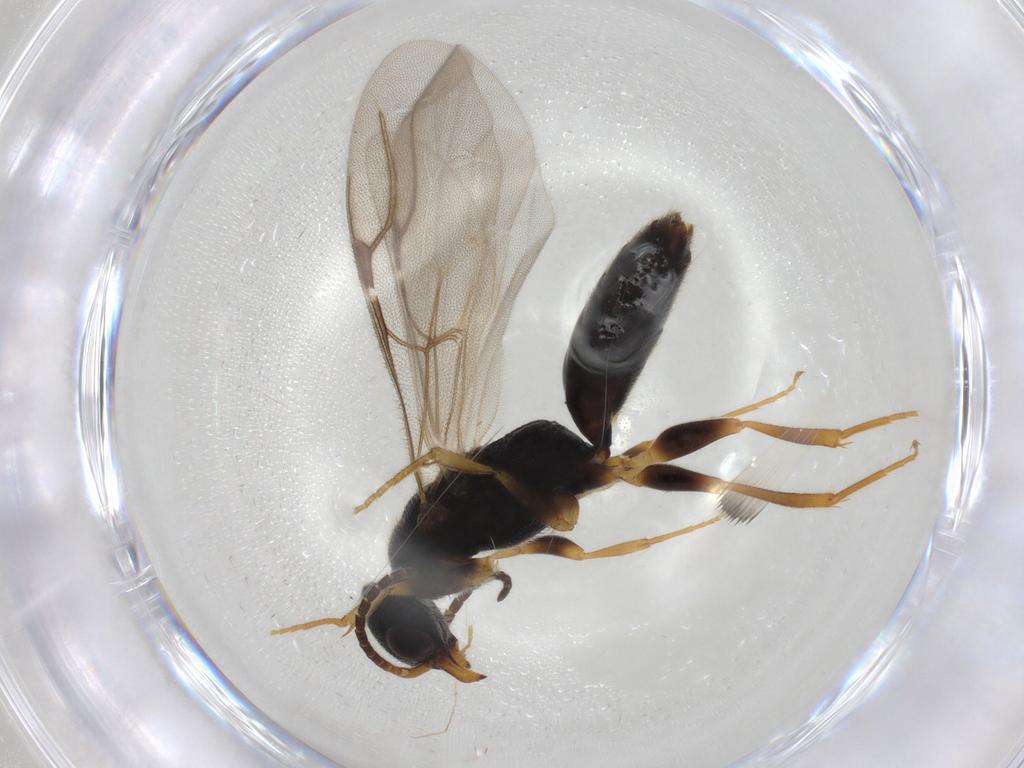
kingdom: Animalia
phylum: Arthropoda
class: Insecta
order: Hymenoptera
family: Bethylidae
